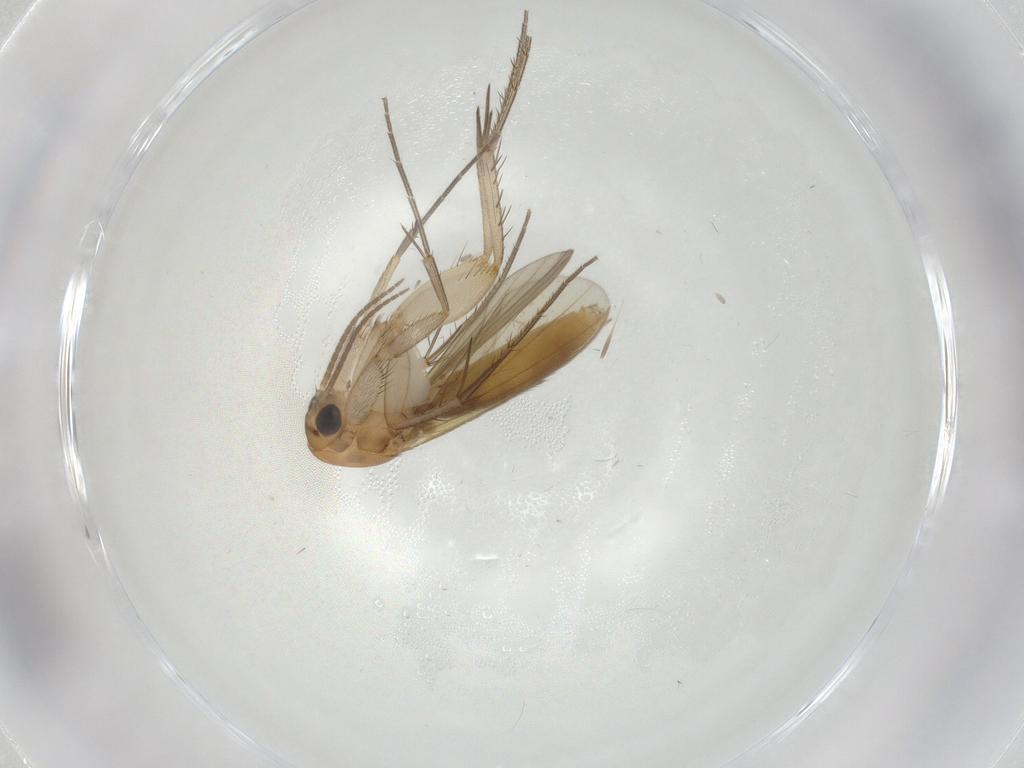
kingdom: Animalia
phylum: Arthropoda
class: Insecta
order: Diptera
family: Mycetophilidae
